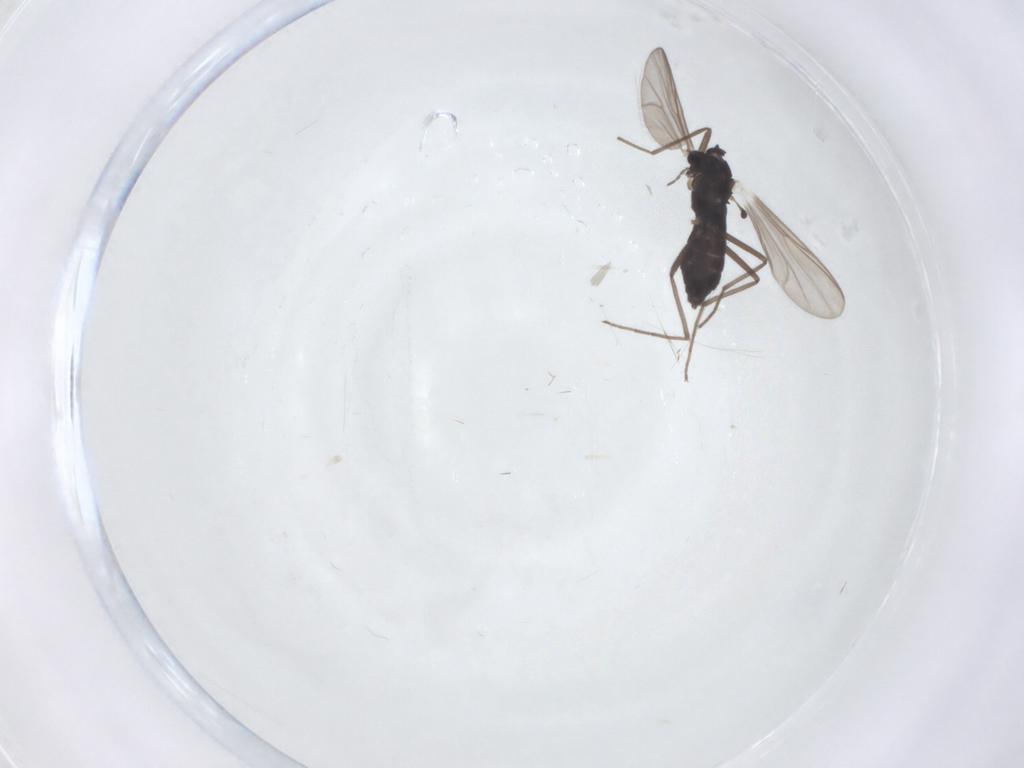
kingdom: Animalia
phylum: Arthropoda
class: Insecta
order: Diptera
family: Chironomidae
